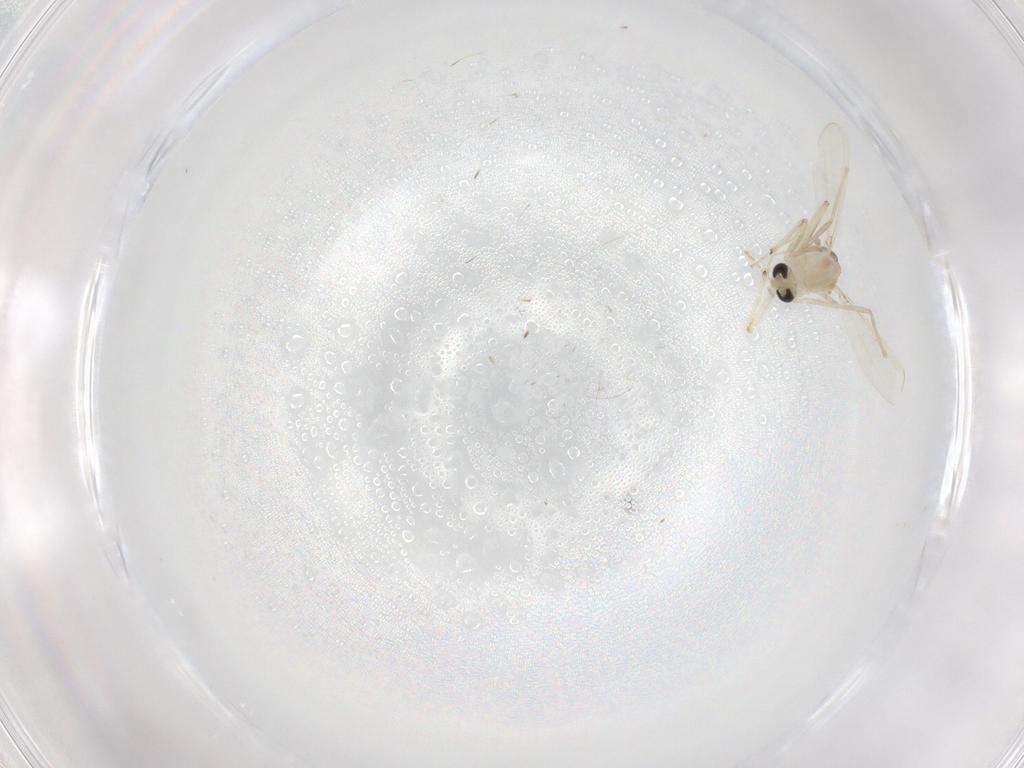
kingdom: Animalia
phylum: Arthropoda
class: Insecta
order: Diptera
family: Chironomidae
